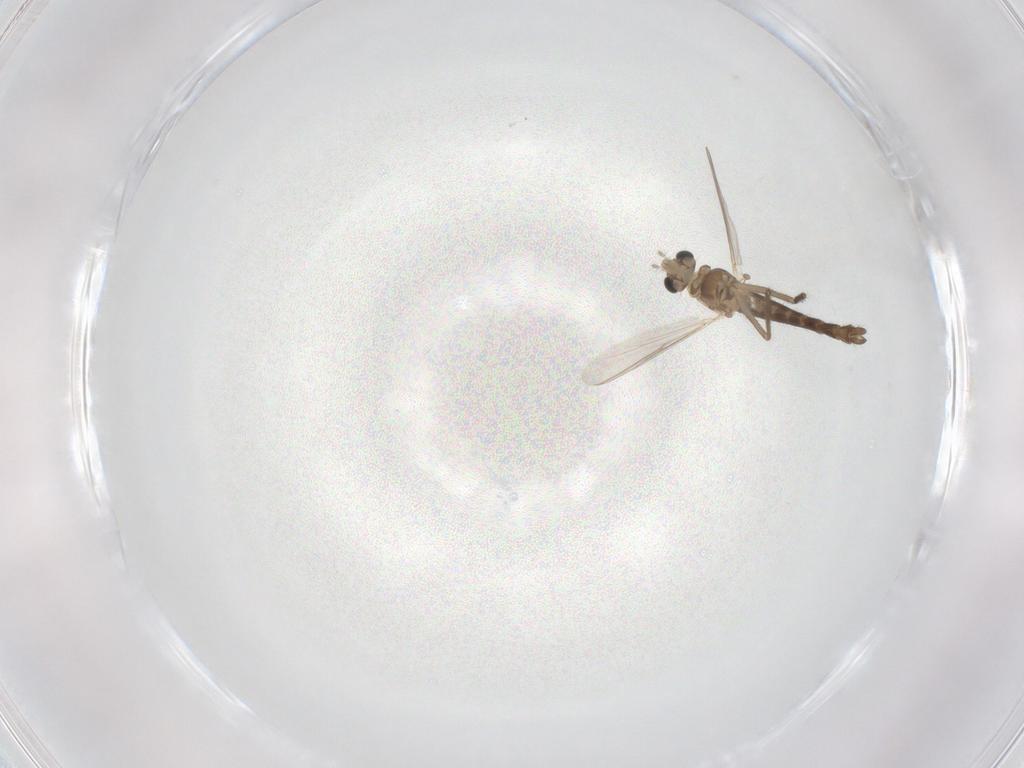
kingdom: Animalia
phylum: Arthropoda
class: Insecta
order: Diptera
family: Chironomidae
